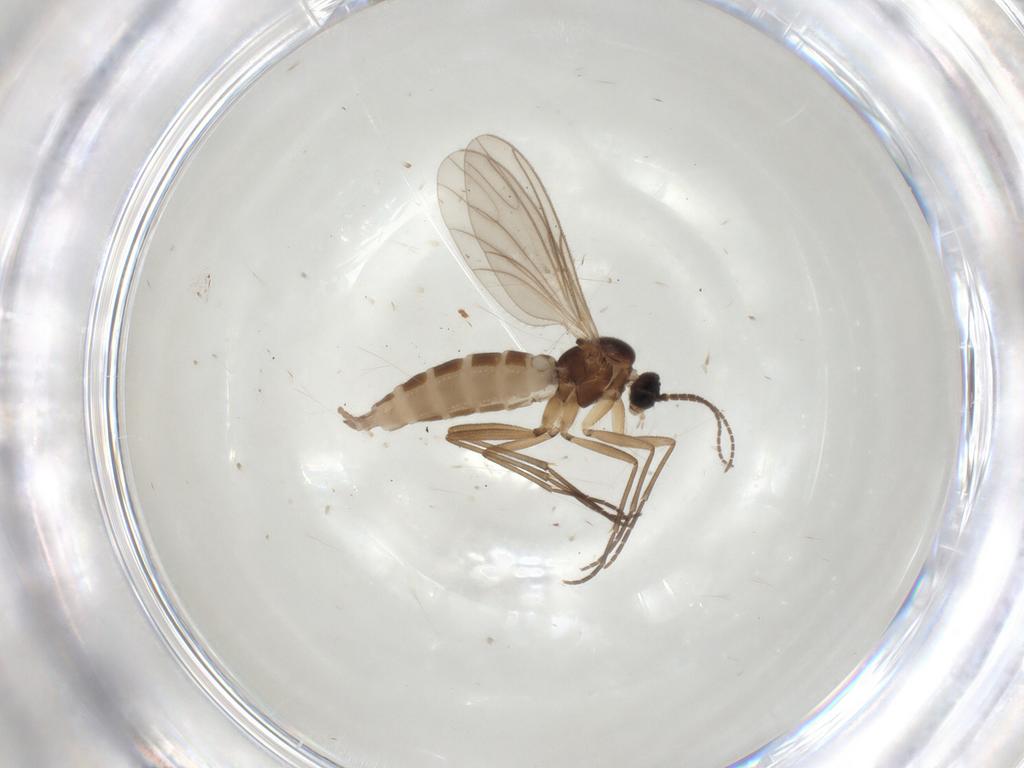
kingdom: Animalia
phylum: Arthropoda
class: Insecta
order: Diptera
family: Sciaridae
